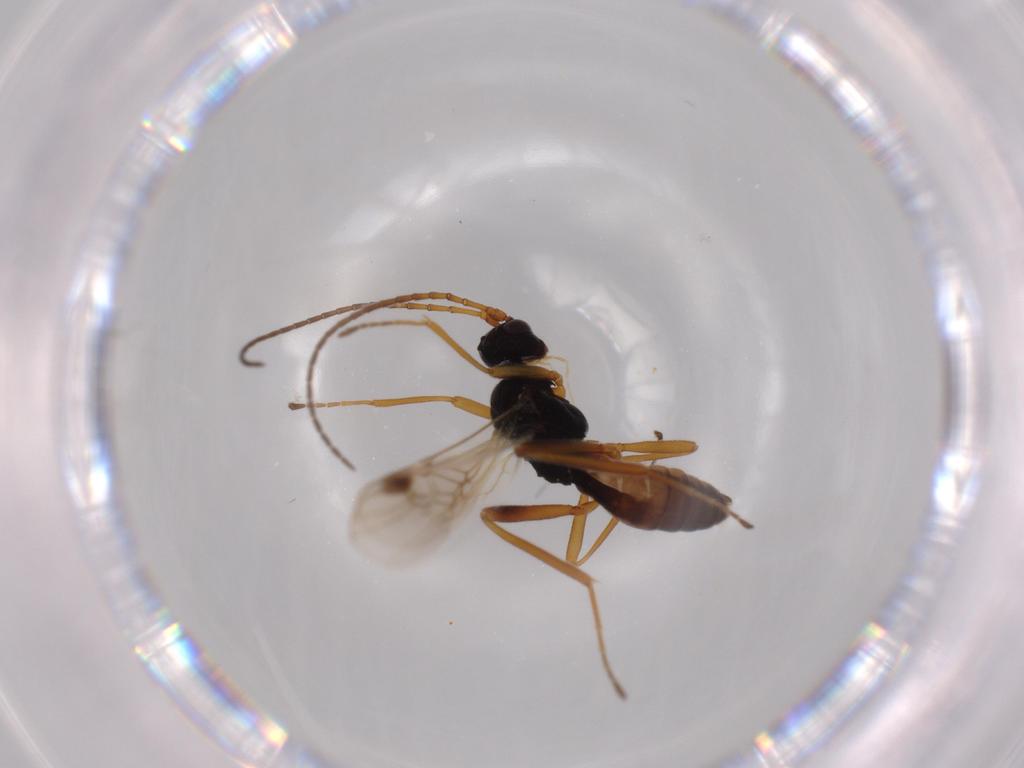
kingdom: Animalia
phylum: Arthropoda
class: Insecta
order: Hymenoptera
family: Braconidae
